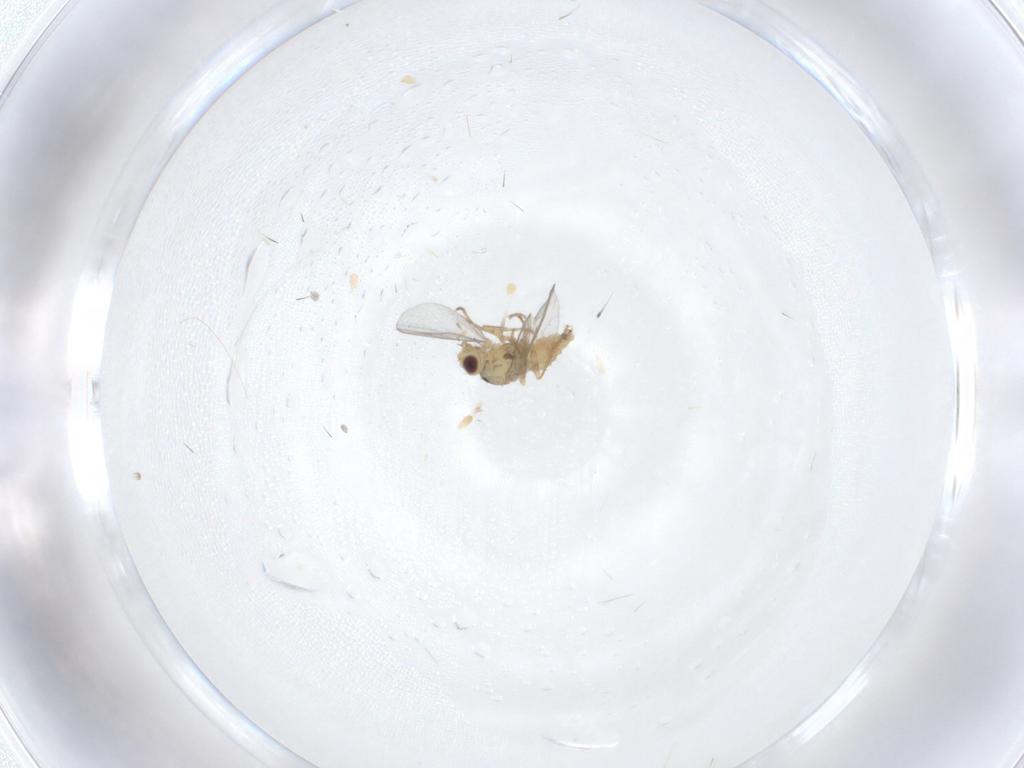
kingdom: Animalia
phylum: Arthropoda
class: Insecta
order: Diptera
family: Agromyzidae
